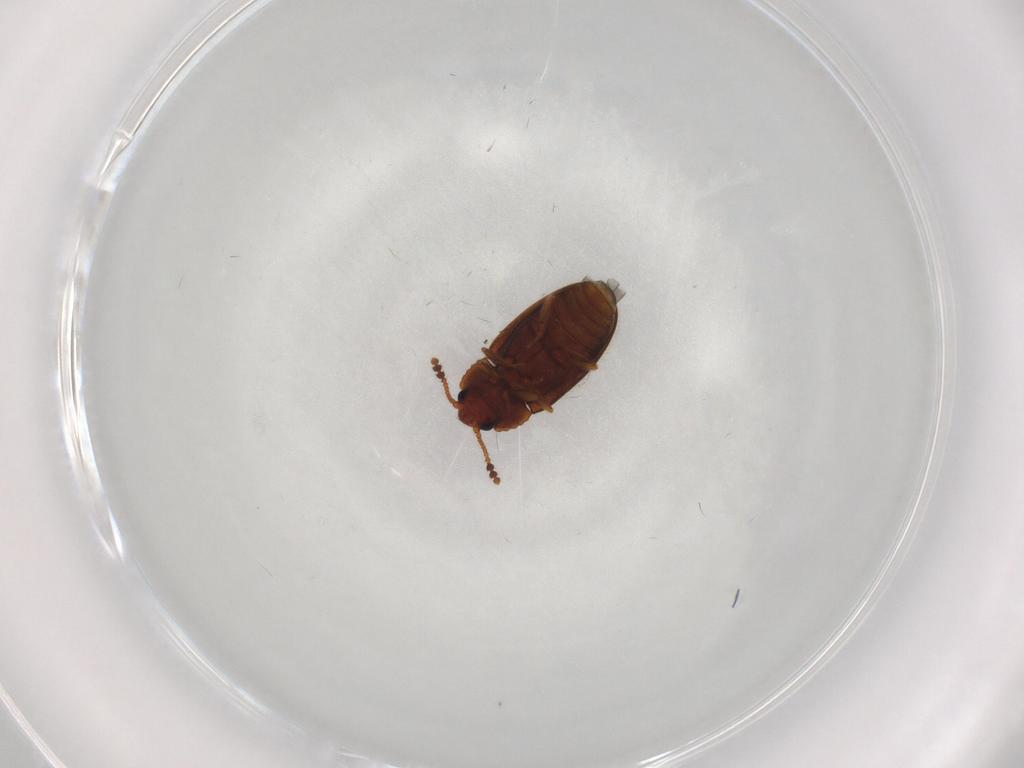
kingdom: Animalia
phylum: Arthropoda
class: Insecta
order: Coleoptera
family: Erotylidae
